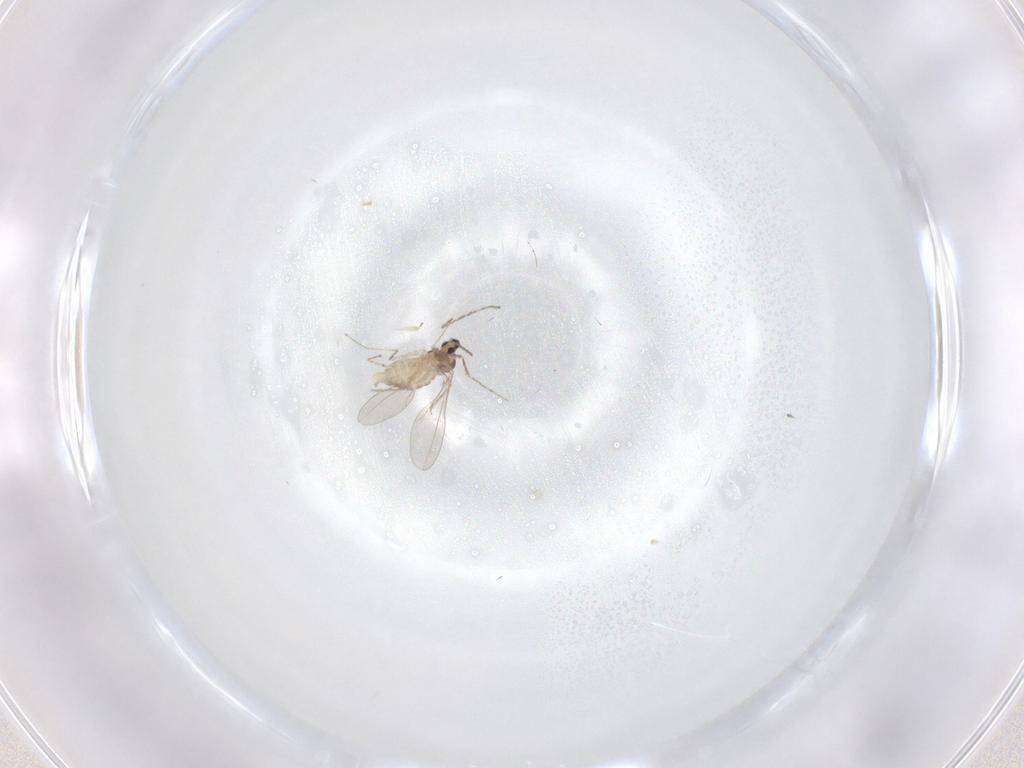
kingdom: Animalia
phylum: Arthropoda
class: Insecta
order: Diptera
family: Cecidomyiidae
